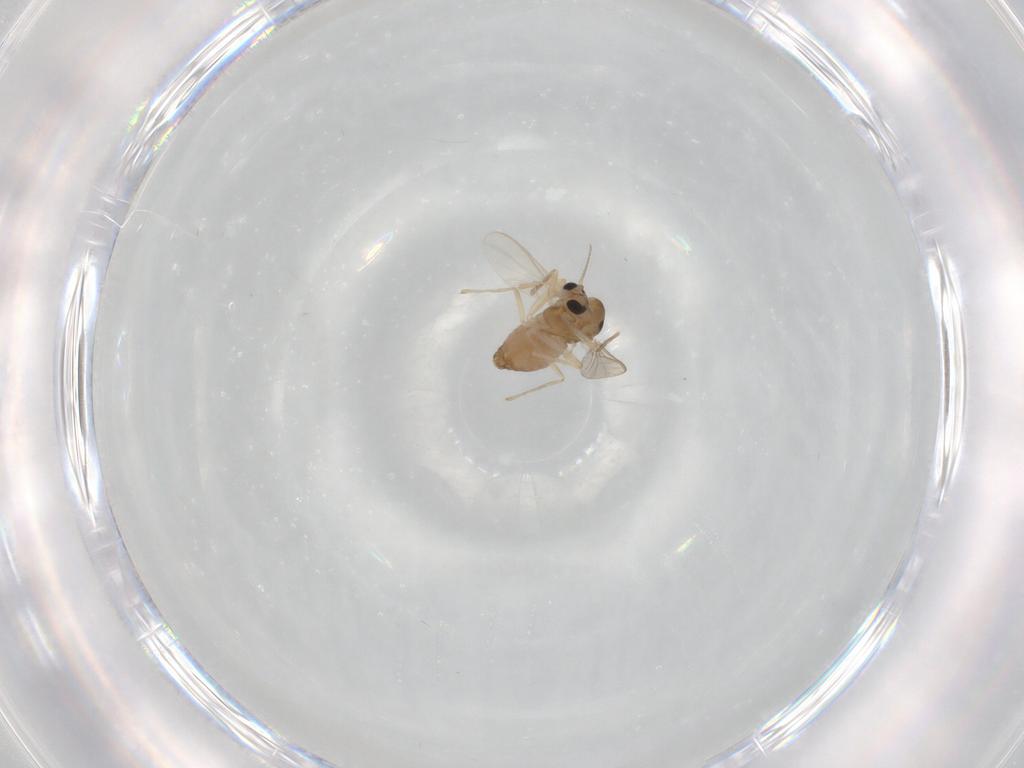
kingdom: Animalia
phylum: Arthropoda
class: Insecta
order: Diptera
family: Chironomidae
